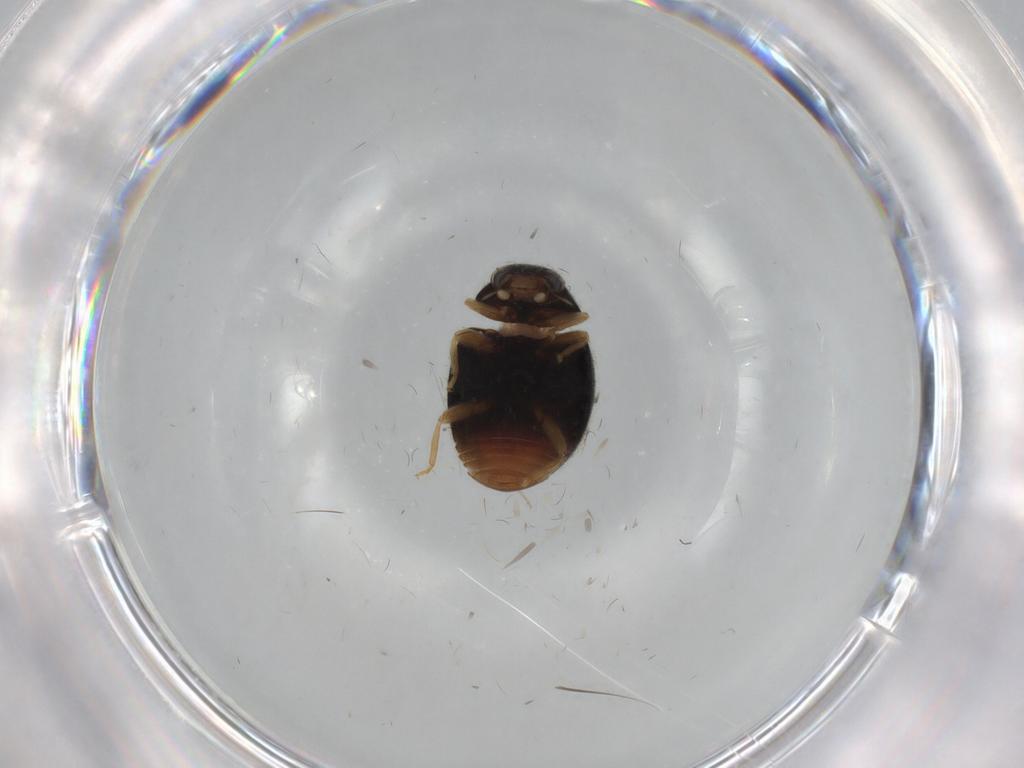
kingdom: Animalia
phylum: Arthropoda
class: Insecta
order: Coleoptera
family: Coccinellidae
